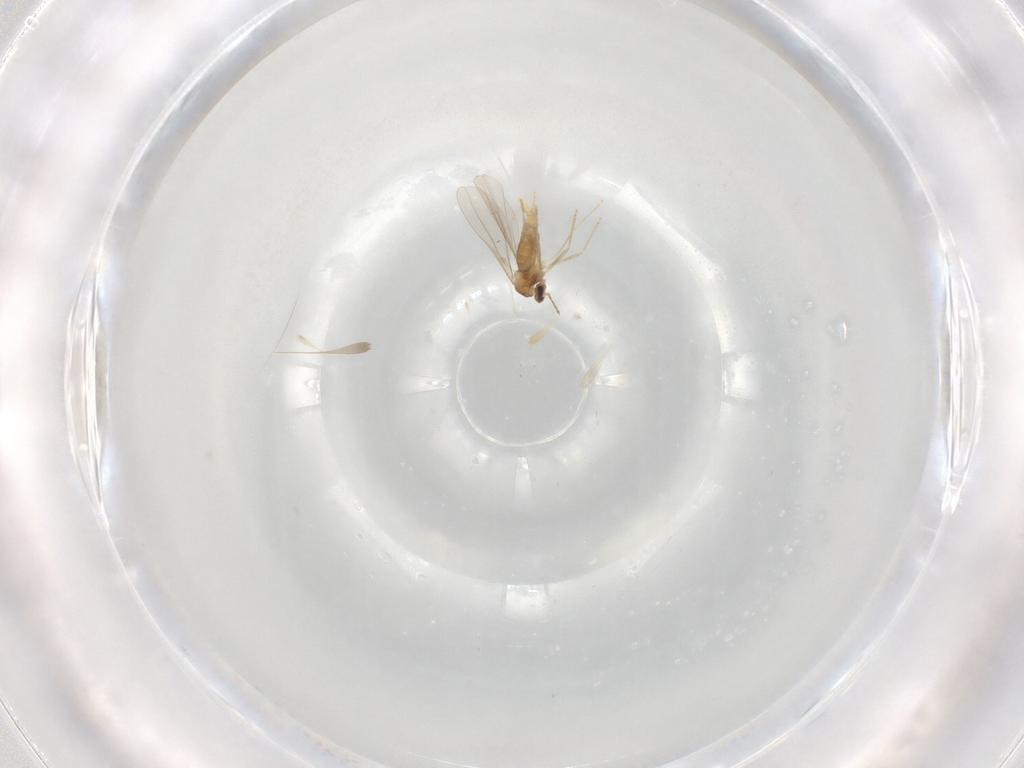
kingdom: Animalia
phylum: Arthropoda
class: Insecta
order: Diptera
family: Cecidomyiidae
